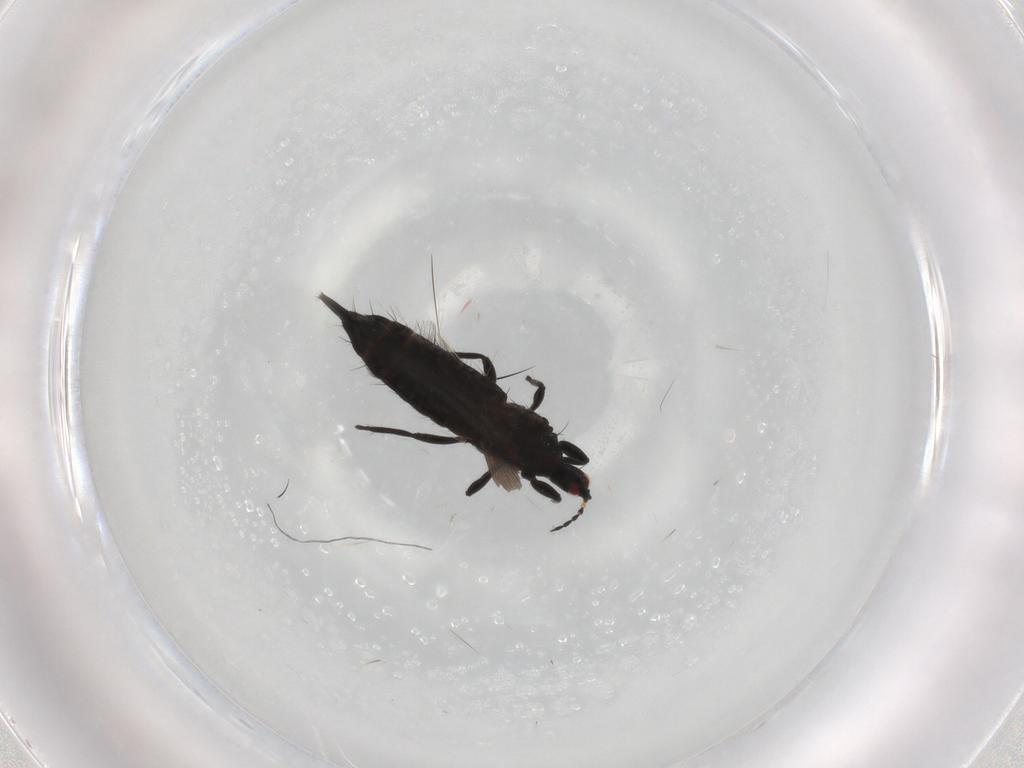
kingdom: Animalia
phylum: Arthropoda
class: Insecta
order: Thysanoptera
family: Phlaeothripidae
